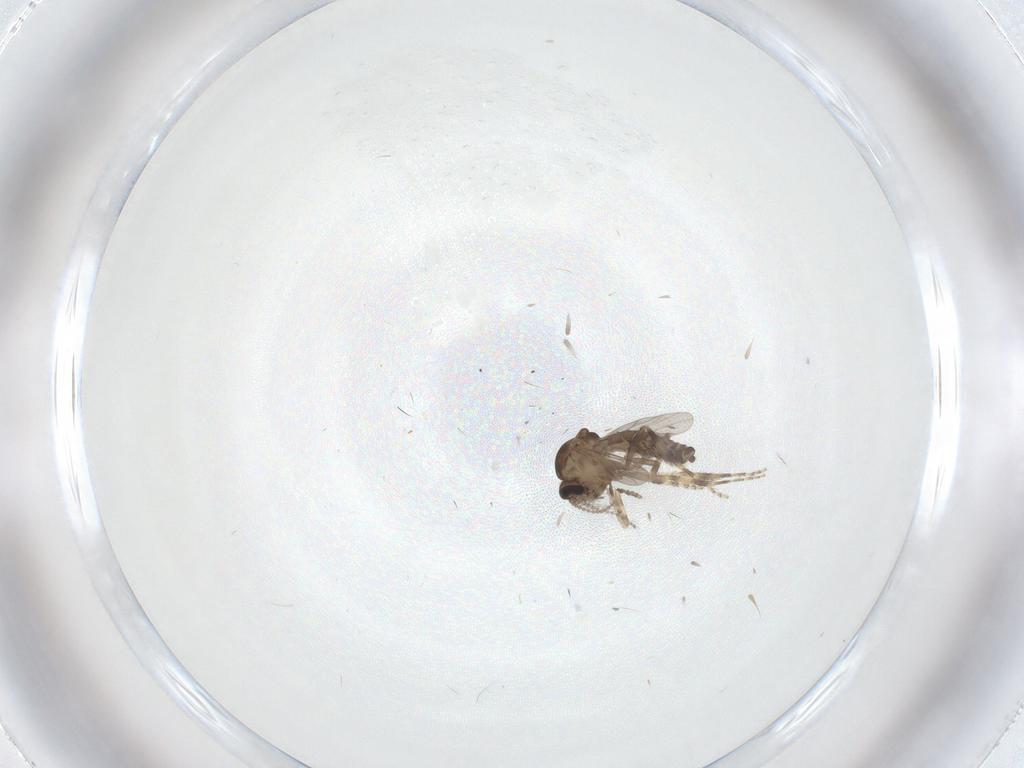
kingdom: Animalia
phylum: Arthropoda
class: Insecta
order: Diptera
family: Ceratopogonidae
